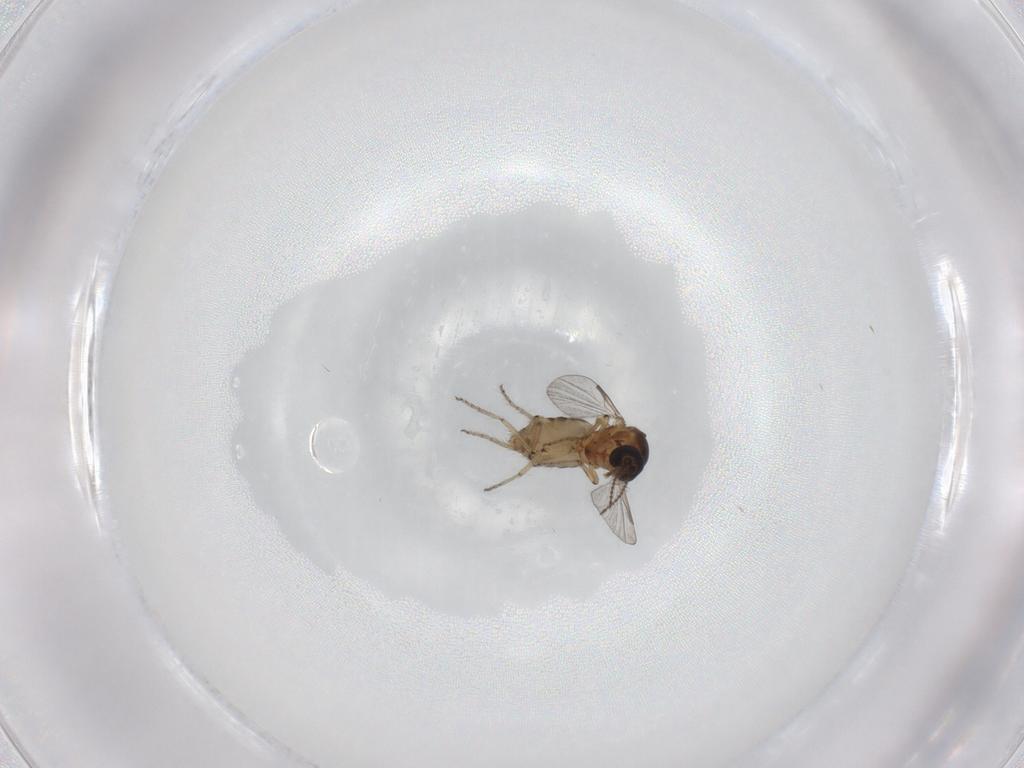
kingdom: Animalia
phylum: Arthropoda
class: Insecta
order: Diptera
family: Ceratopogonidae
